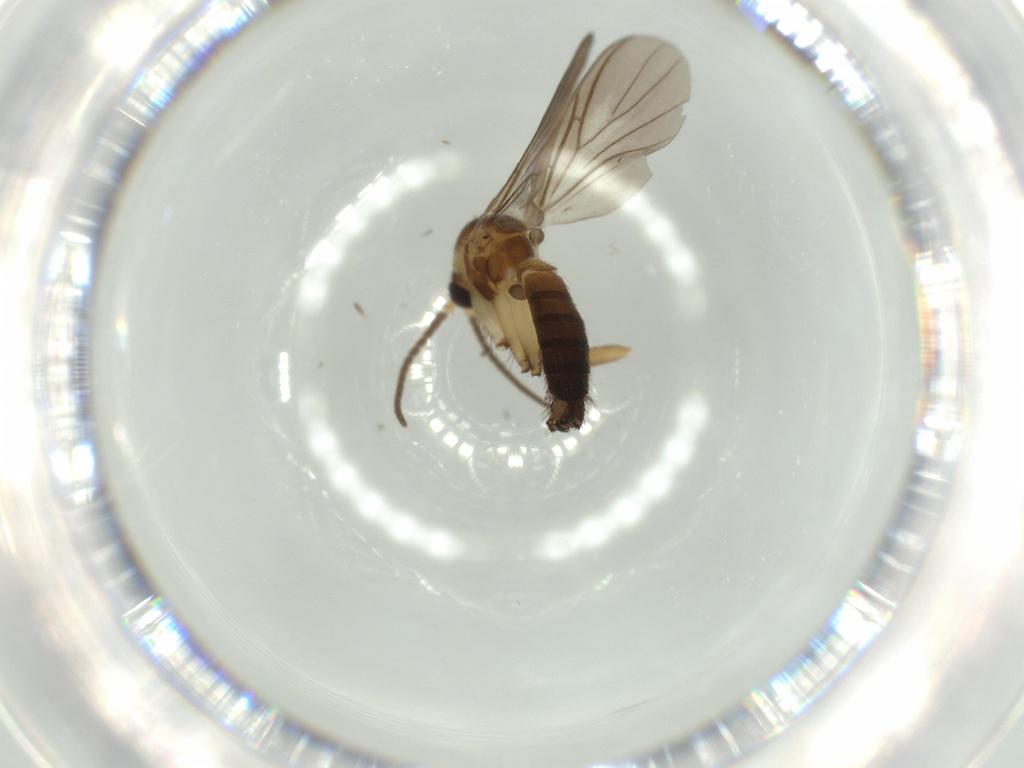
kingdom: Animalia
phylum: Arthropoda
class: Insecta
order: Diptera
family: Mycetophilidae
